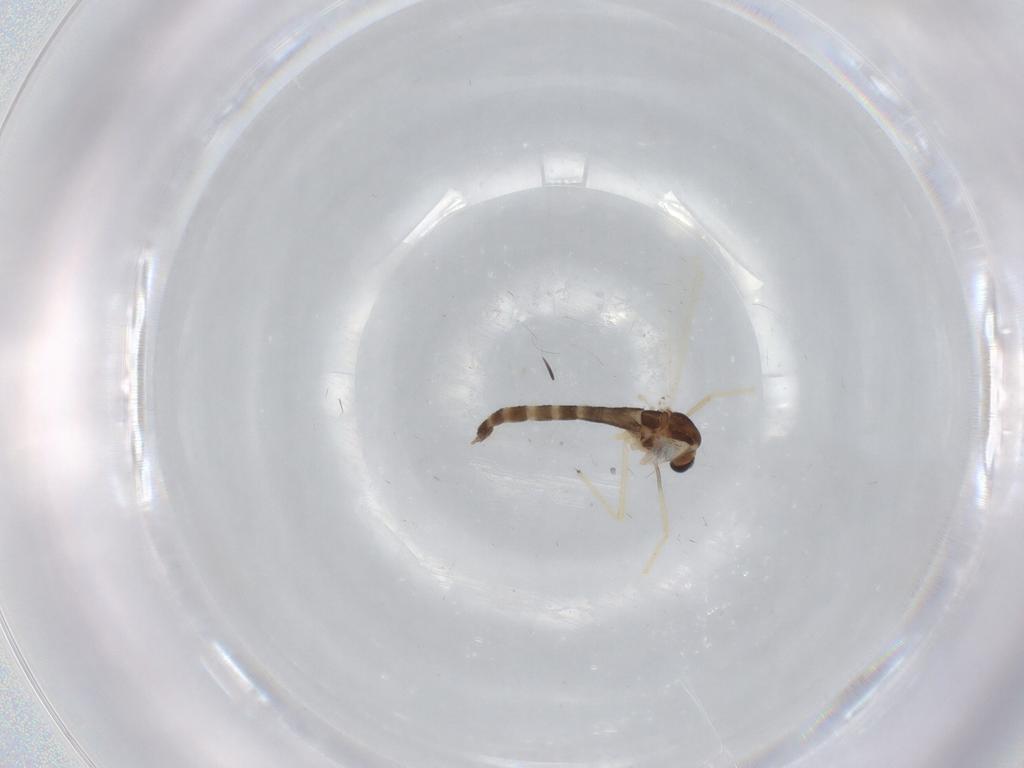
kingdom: Animalia
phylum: Arthropoda
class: Insecta
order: Diptera
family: Chironomidae
